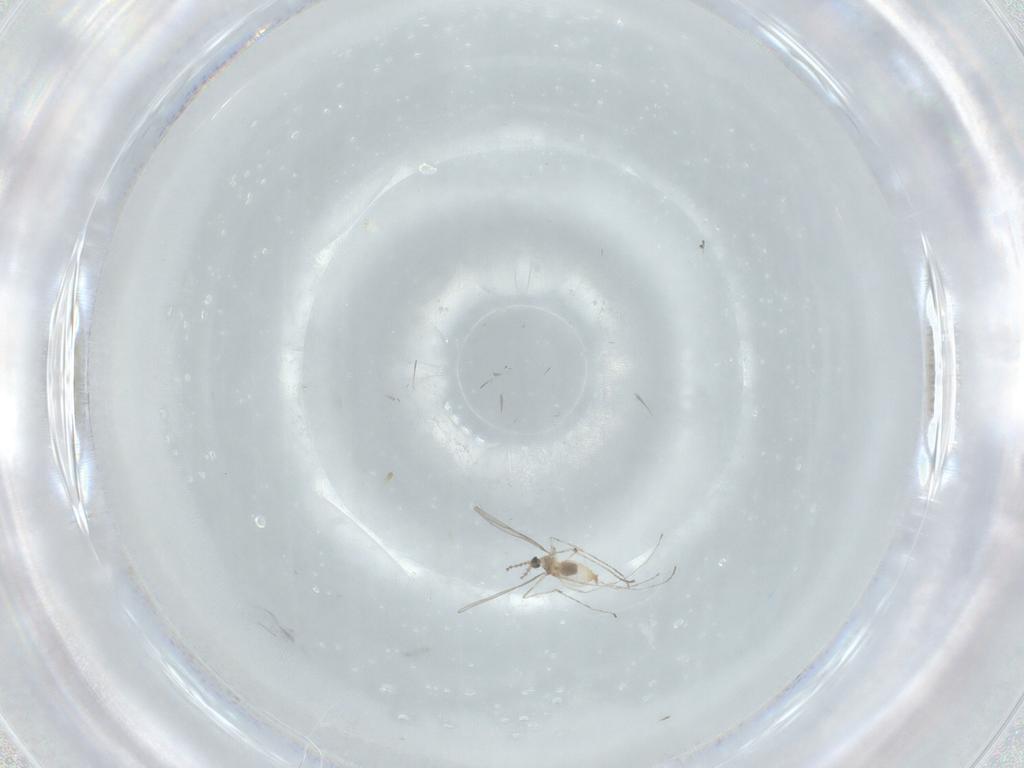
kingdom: Animalia
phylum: Arthropoda
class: Insecta
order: Diptera
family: Cecidomyiidae
